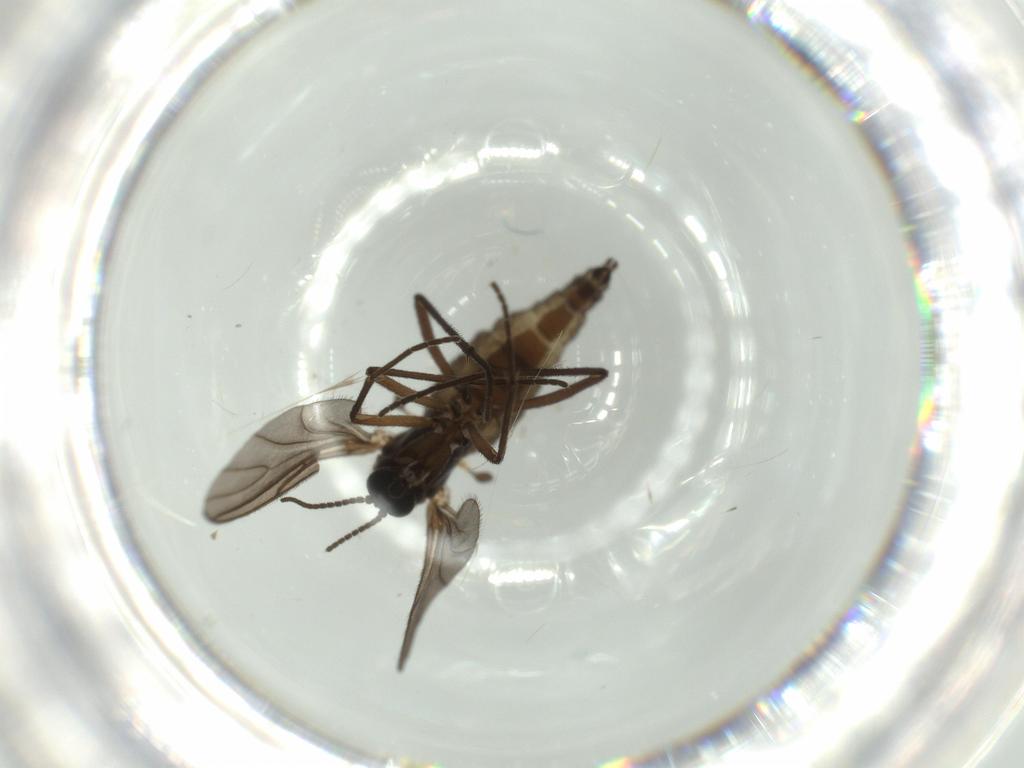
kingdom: Animalia
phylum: Arthropoda
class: Insecta
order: Diptera
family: Sciaridae
